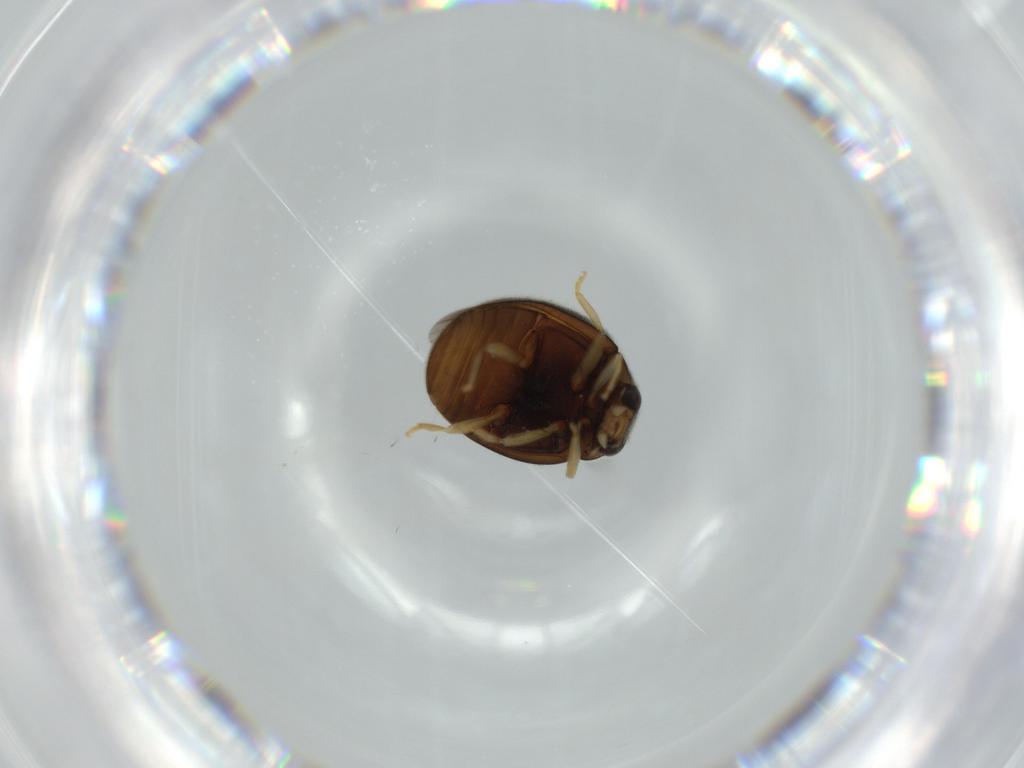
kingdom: Animalia
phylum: Arthropoda
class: Insecta
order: Coleoptera
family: Coccinellidae
